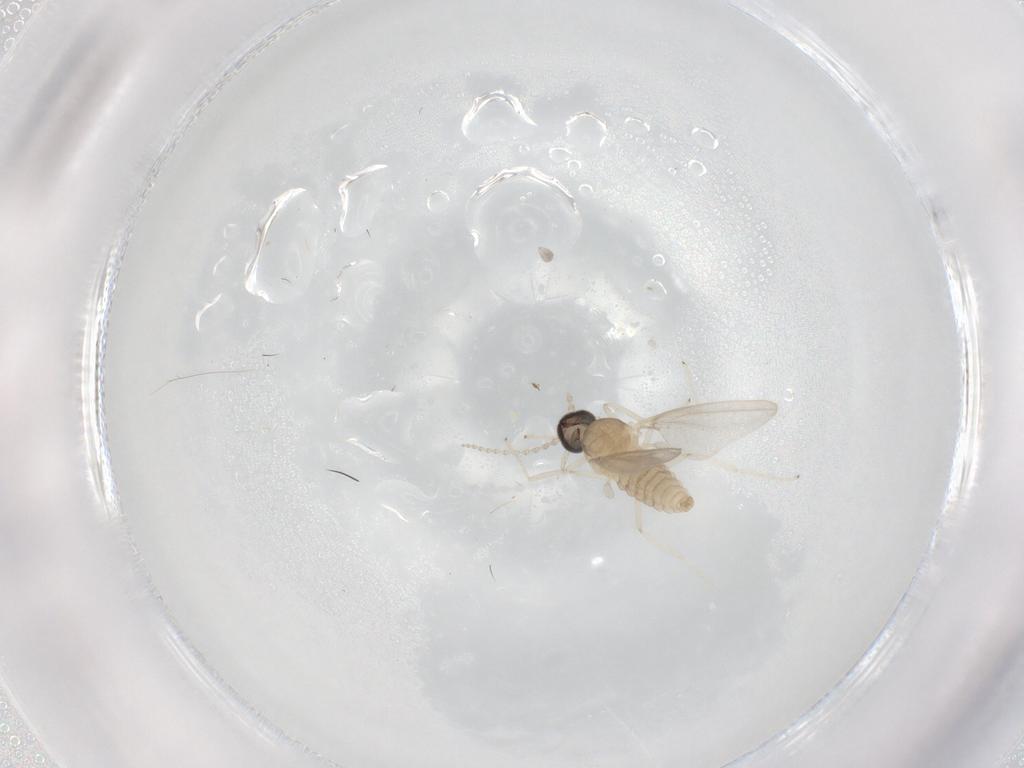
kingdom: Animalia
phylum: Arthropoda
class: Insecta
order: Diptera
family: Cecidomyiidae
